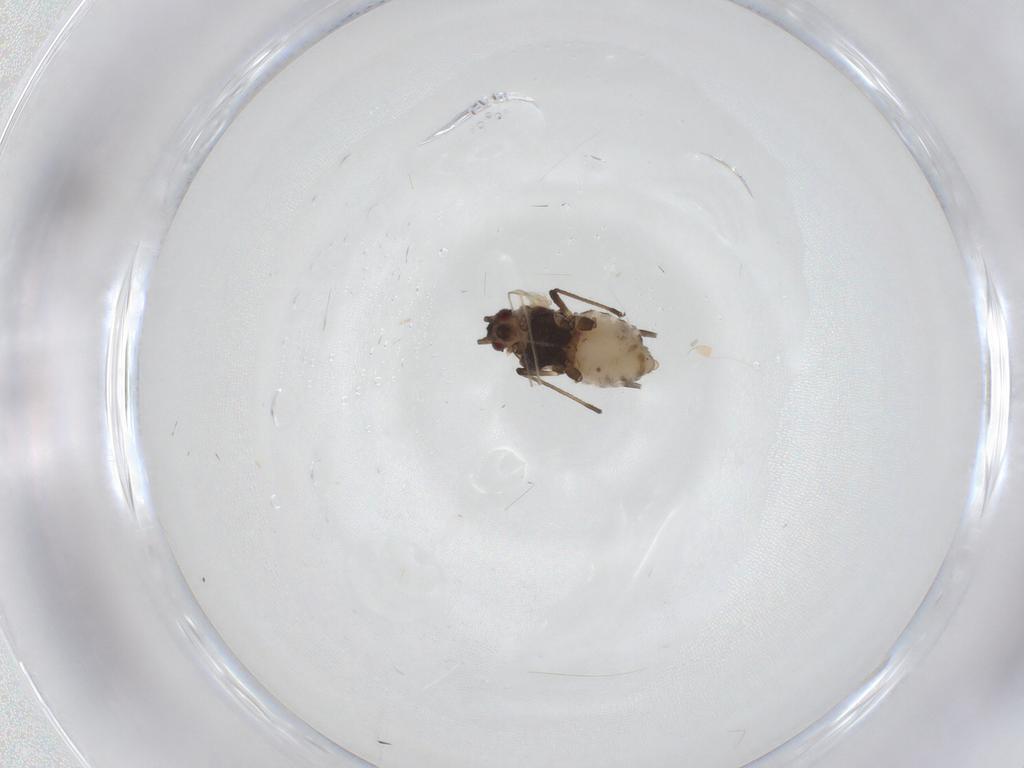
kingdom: Animalia
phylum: Arthropoda
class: Insecta
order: Hemiptera
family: Aphididae
